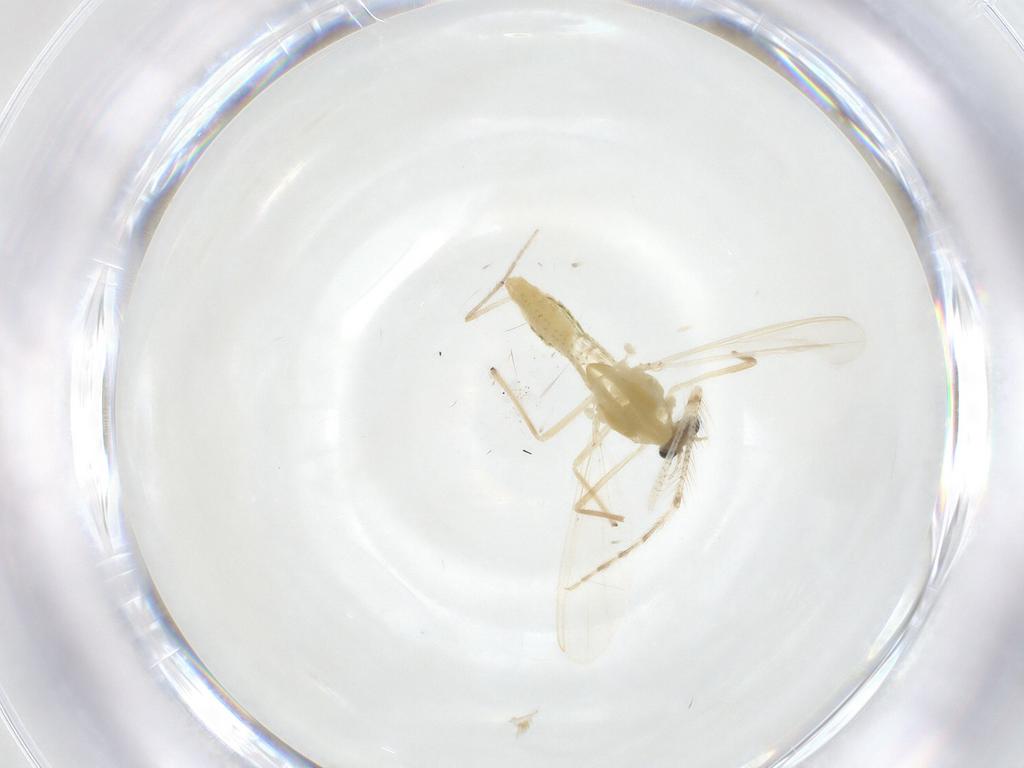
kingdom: Animalia
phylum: Arthropoda
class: Insecta
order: Diptera
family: Chironomidae
